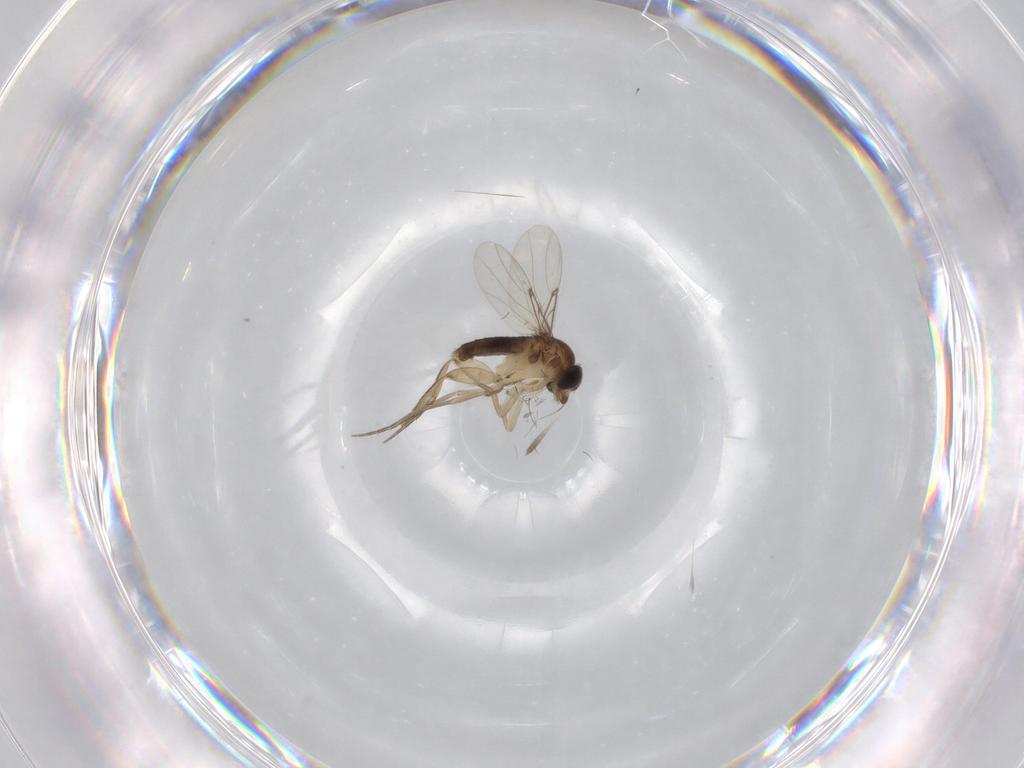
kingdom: Animalia
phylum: Arthropoda
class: Insecta
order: Diptera
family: Phoridae
